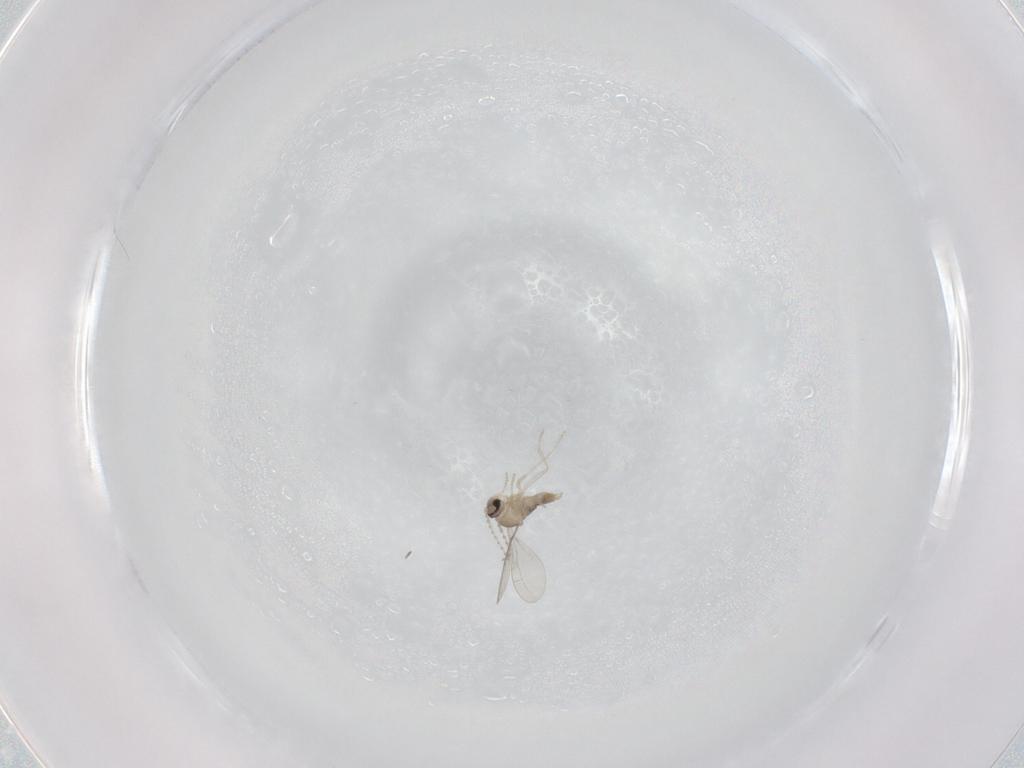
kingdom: Animalia
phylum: Arthropoda
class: Insecta
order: Diptera
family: Cecidomyiidae
